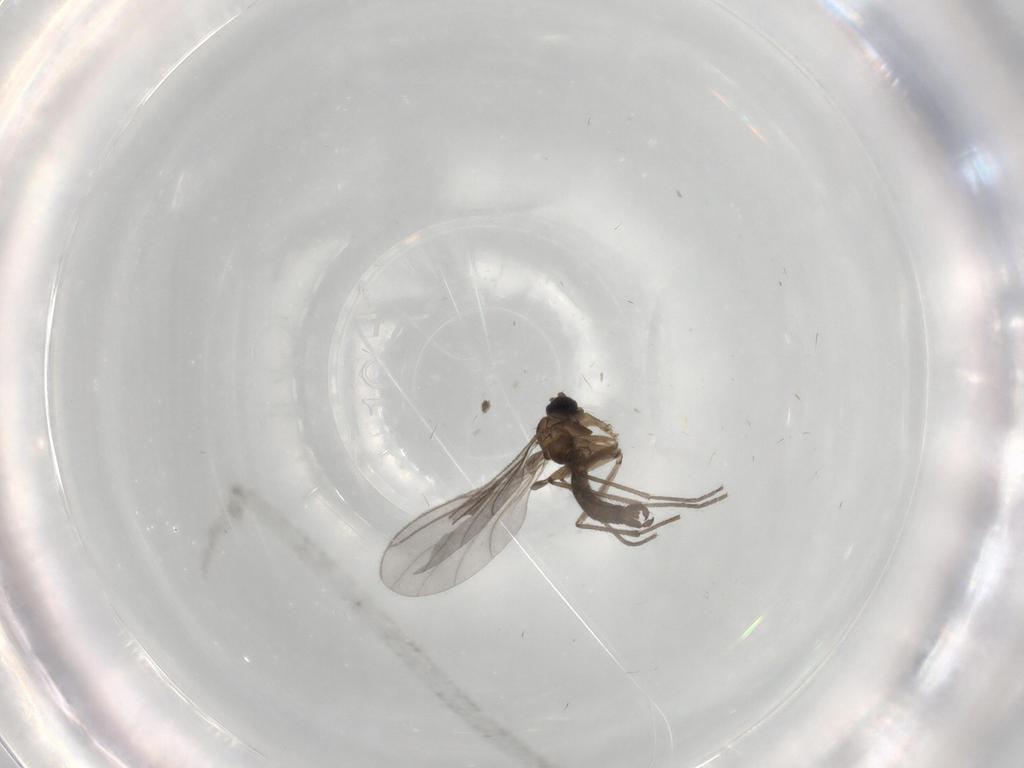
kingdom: Animalia
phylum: Arthropoda
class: Insecta
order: Diptera
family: Sciaridae
